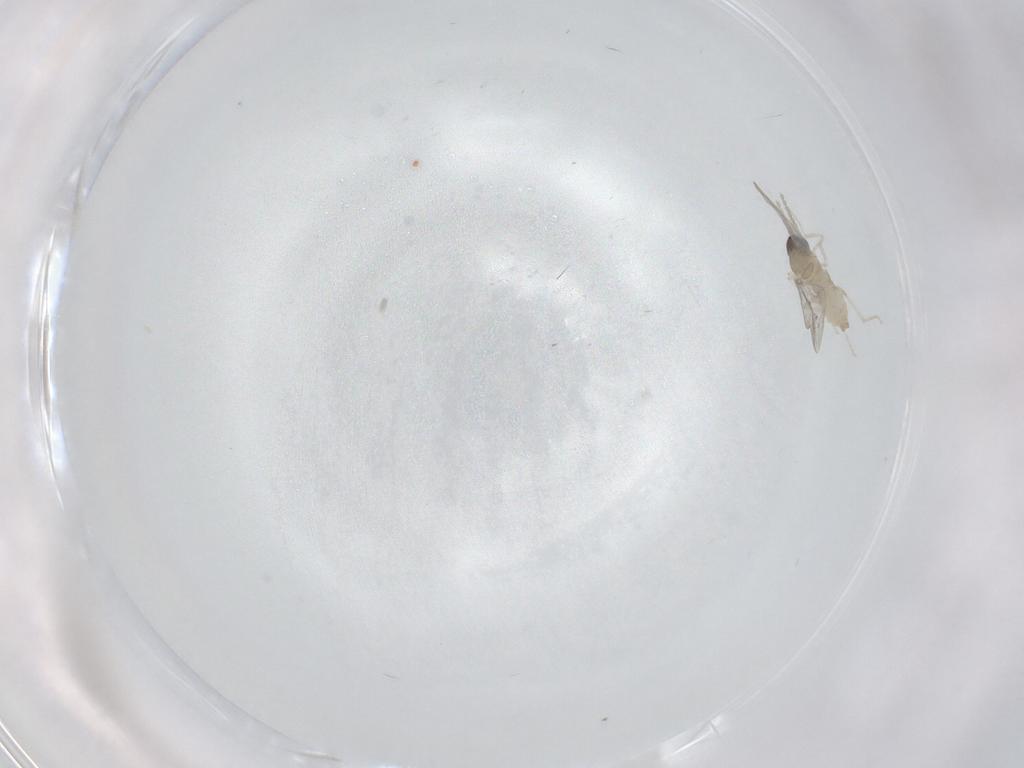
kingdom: Animalia
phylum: Arthropoda
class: Insecta
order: Diptera
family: Cecidomyiidae
